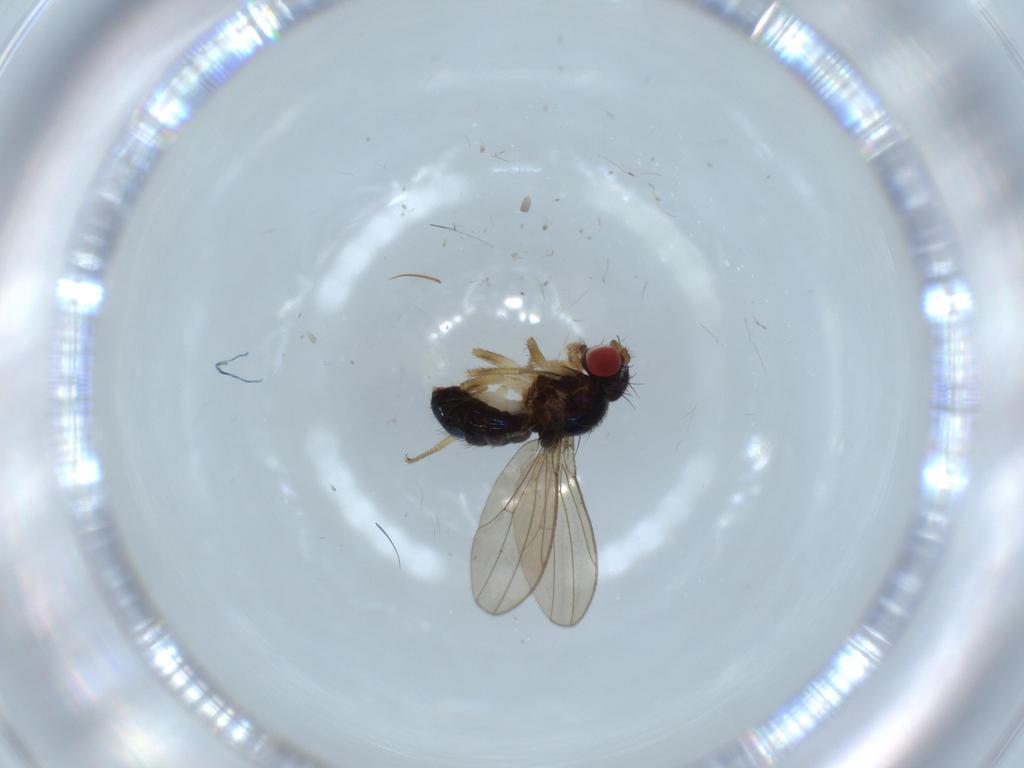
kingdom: Animalia
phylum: Arthropoda
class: Insecta
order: Diptera
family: Drosophilidae
